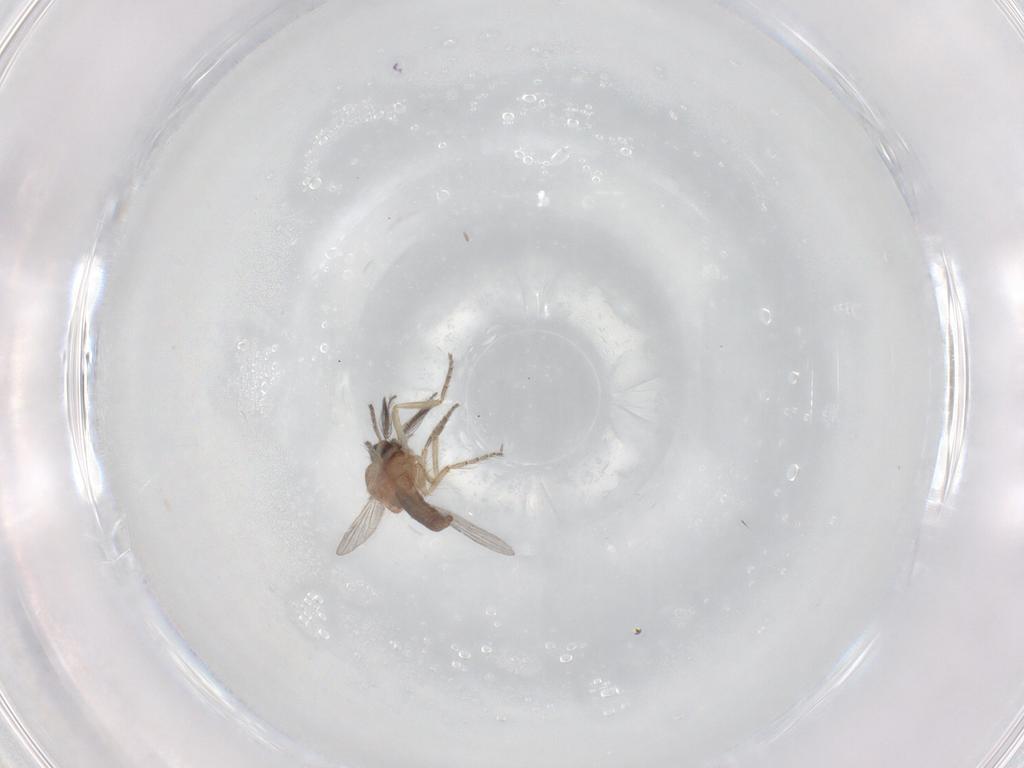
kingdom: Animalia
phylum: Arthropoda
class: Insecta
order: Diptera
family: Ceratopogonidae
